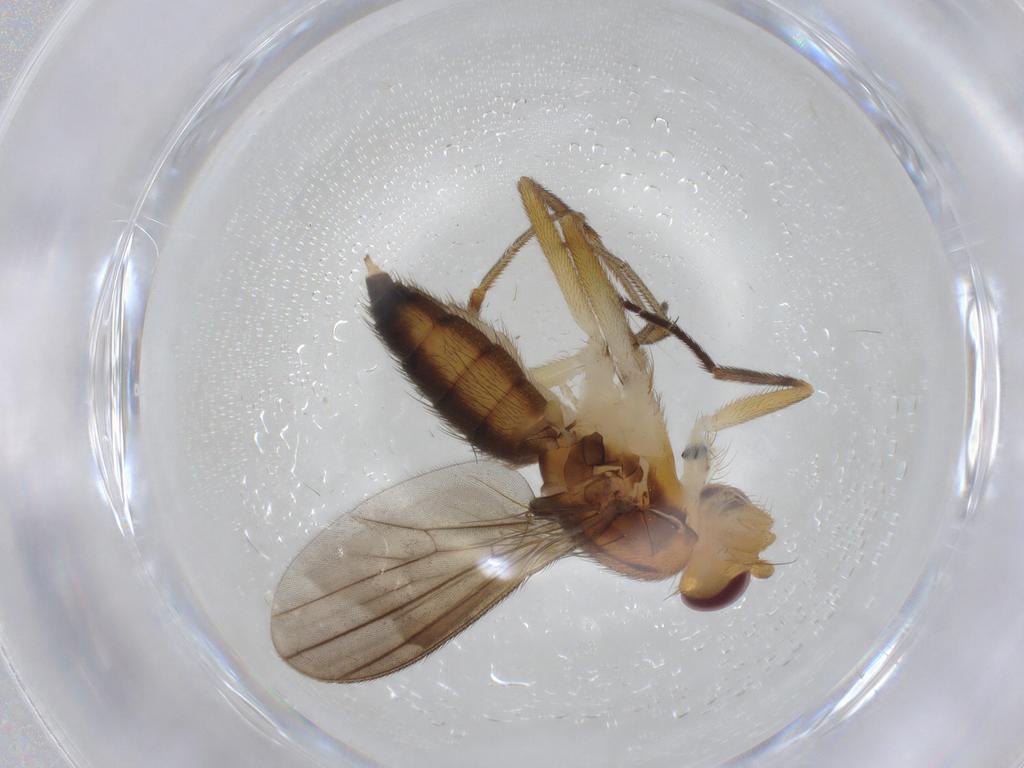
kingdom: Animalia
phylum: Arthropoda
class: Insecta
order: Diptera
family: Clusiidae
